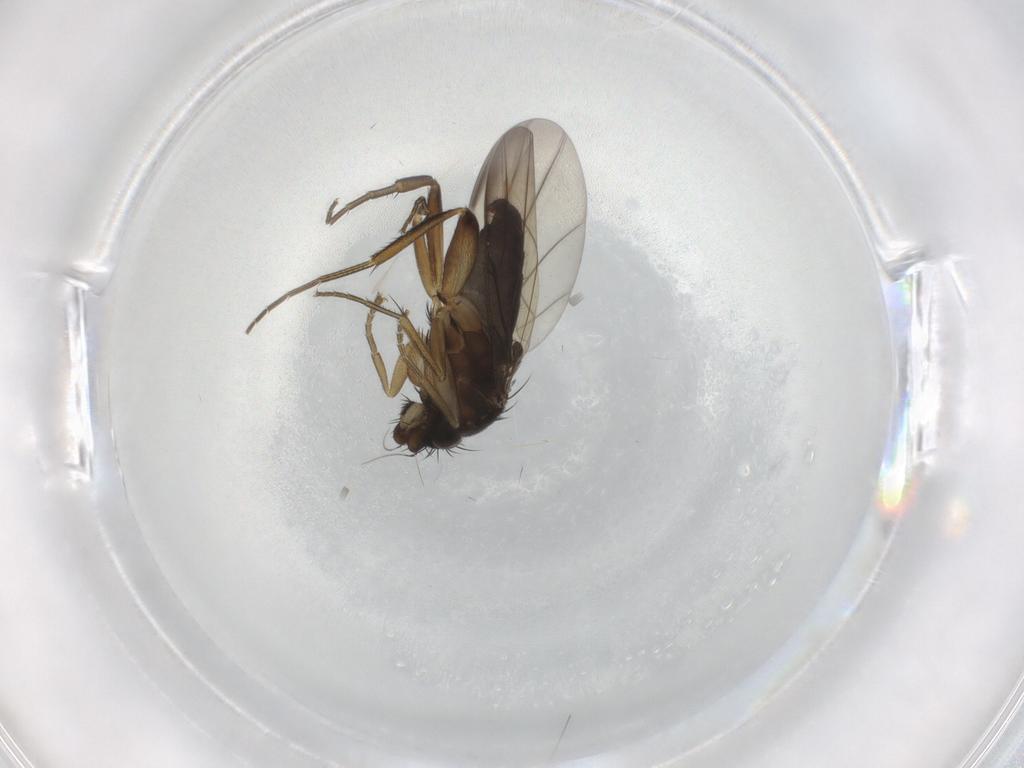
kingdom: Animalia
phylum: Arthropoda
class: Insecta
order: Diptera
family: Phoridae
